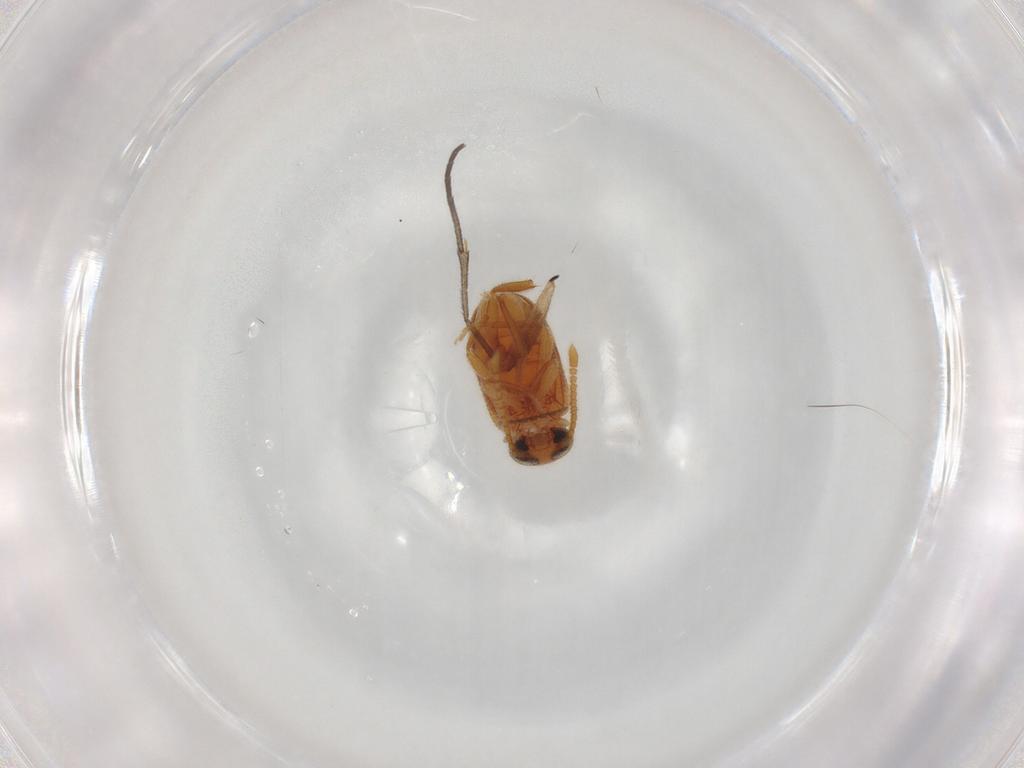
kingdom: Animalia
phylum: Arthropoda
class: Insecta
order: Coleoptera
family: Aderidae
